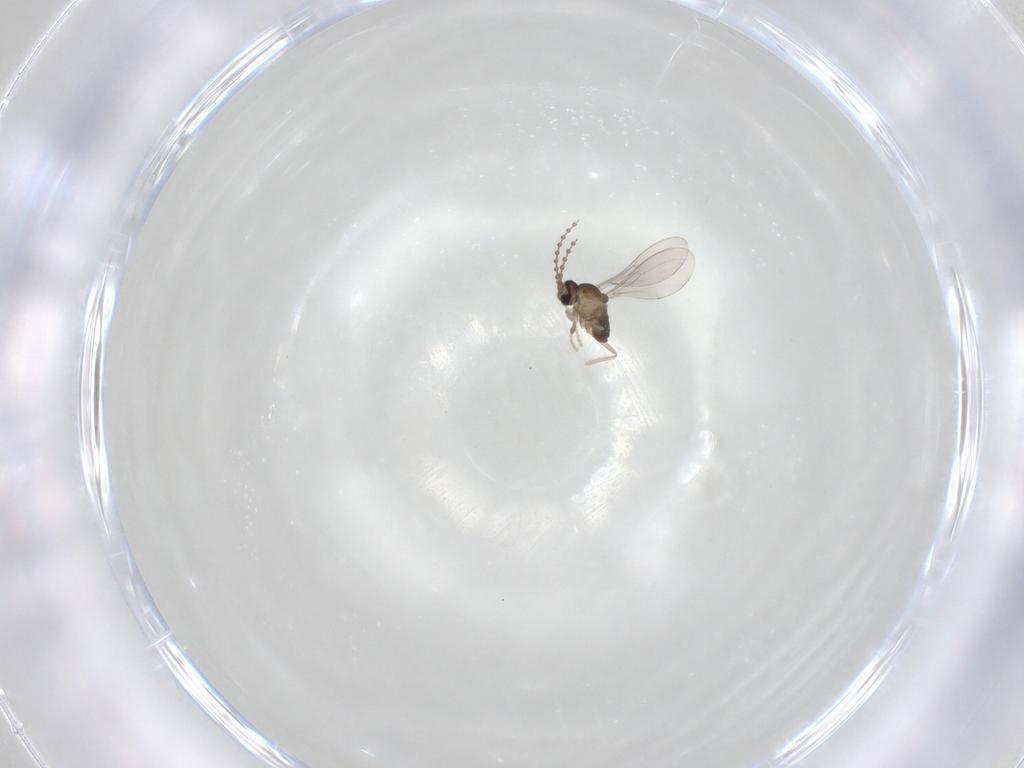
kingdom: Animalia
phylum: Arthropoda
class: Insecta
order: Diptera
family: Cecidomyiidae
